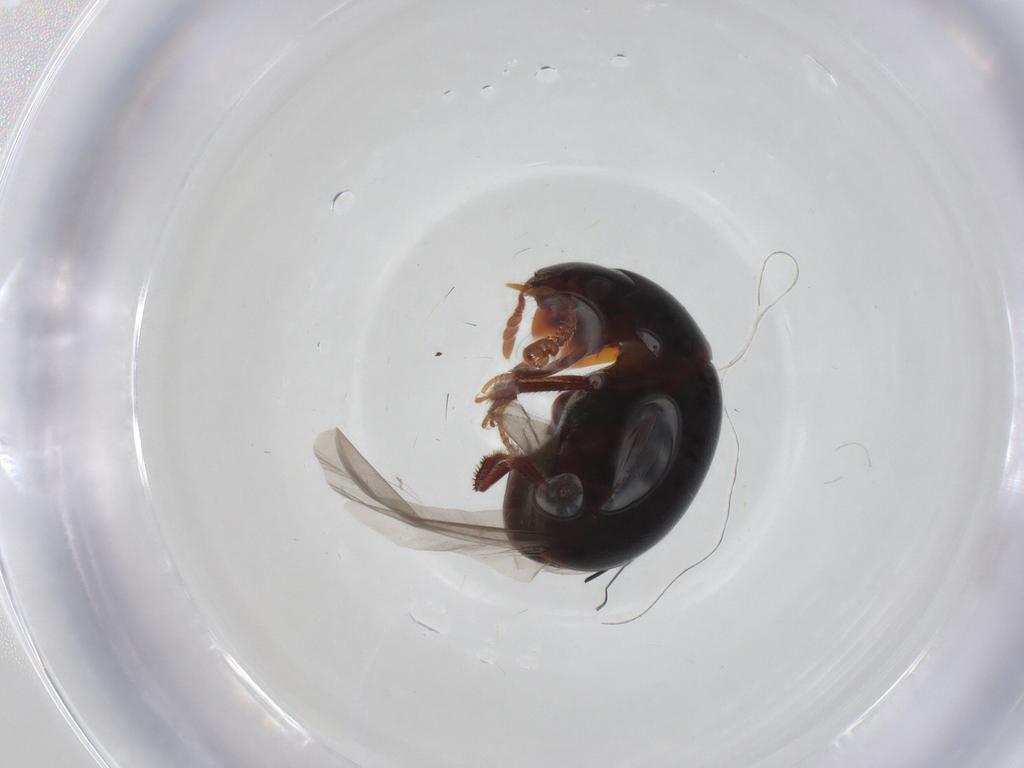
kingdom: Animalia
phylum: Arthropoda
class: Insecta
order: Coleoptera
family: Leiodidae
